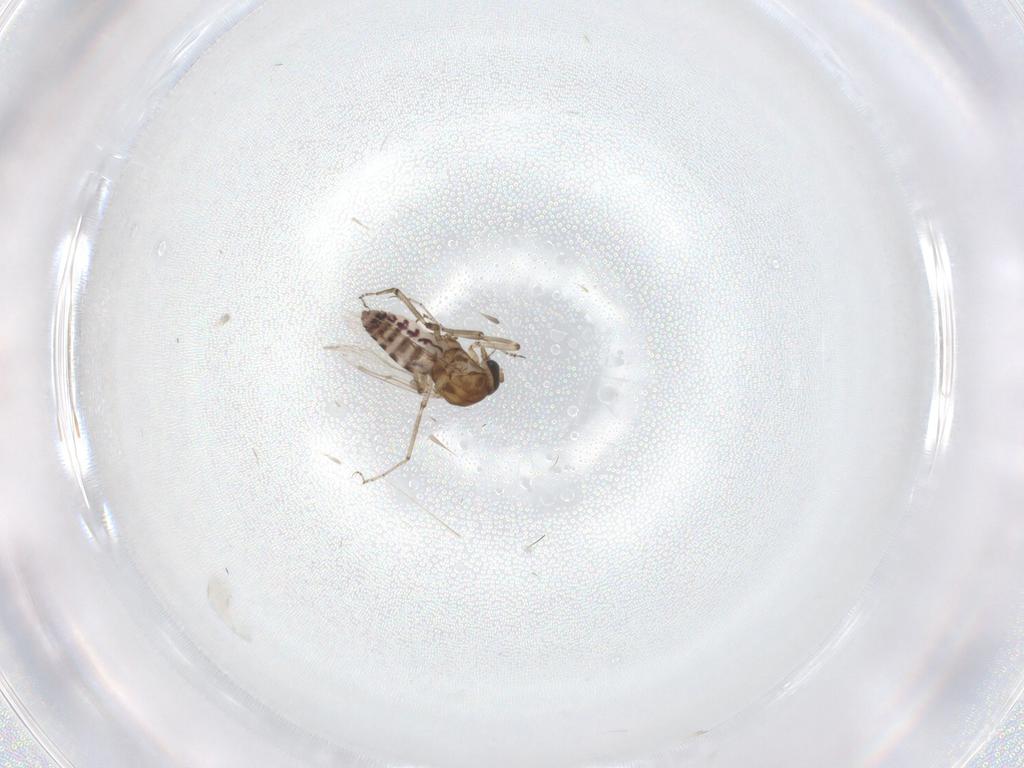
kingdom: Animalia
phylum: Arthropoda
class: Insecta
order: Diptera
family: Ceratopogonidae
